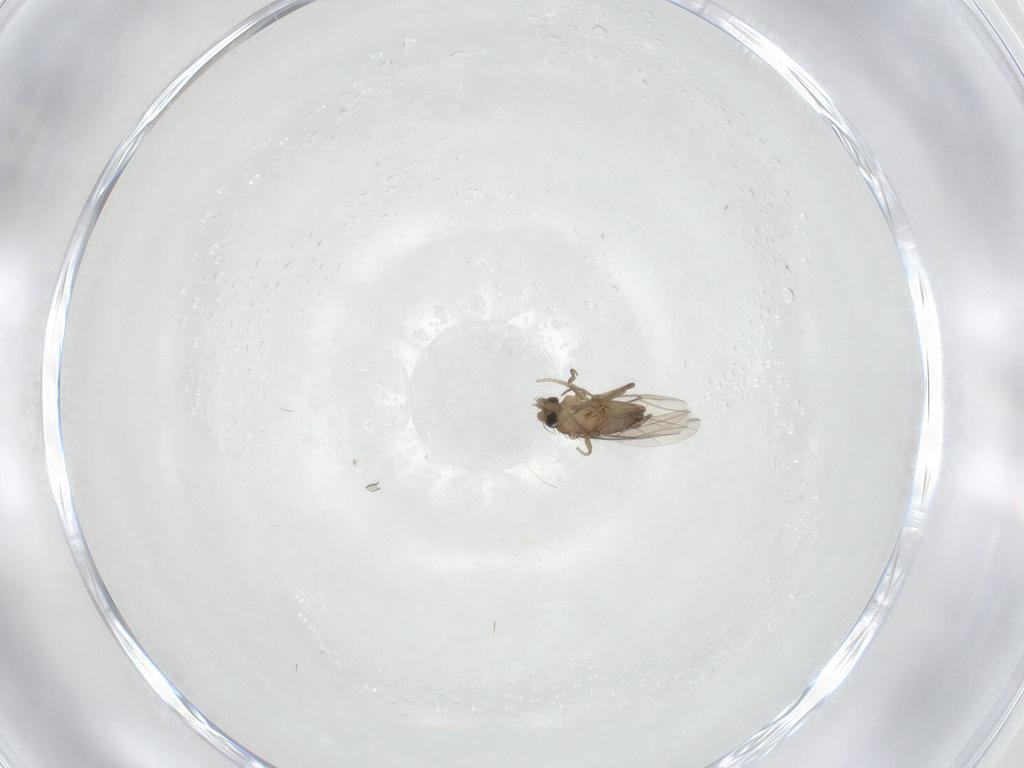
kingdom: Animalia
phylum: Arthropoda
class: Insecta
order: Diptera
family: Phoridae
